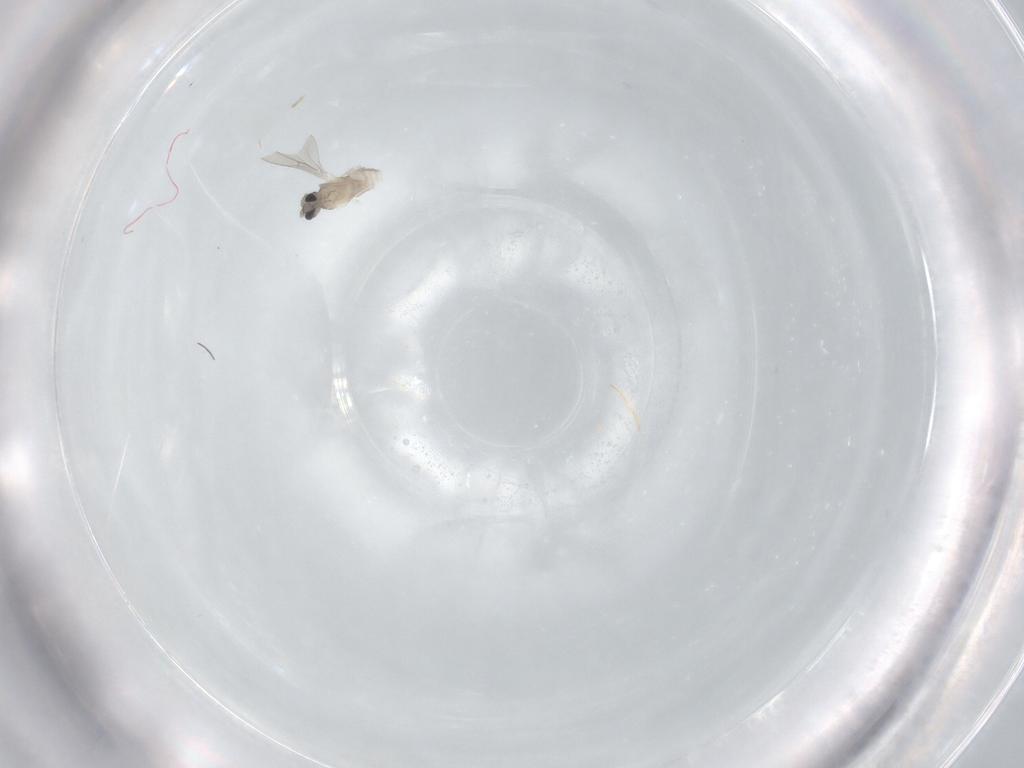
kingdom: Animalia
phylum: Arthropoda
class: Insecta
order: Diptera
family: Cecidomyiidae
